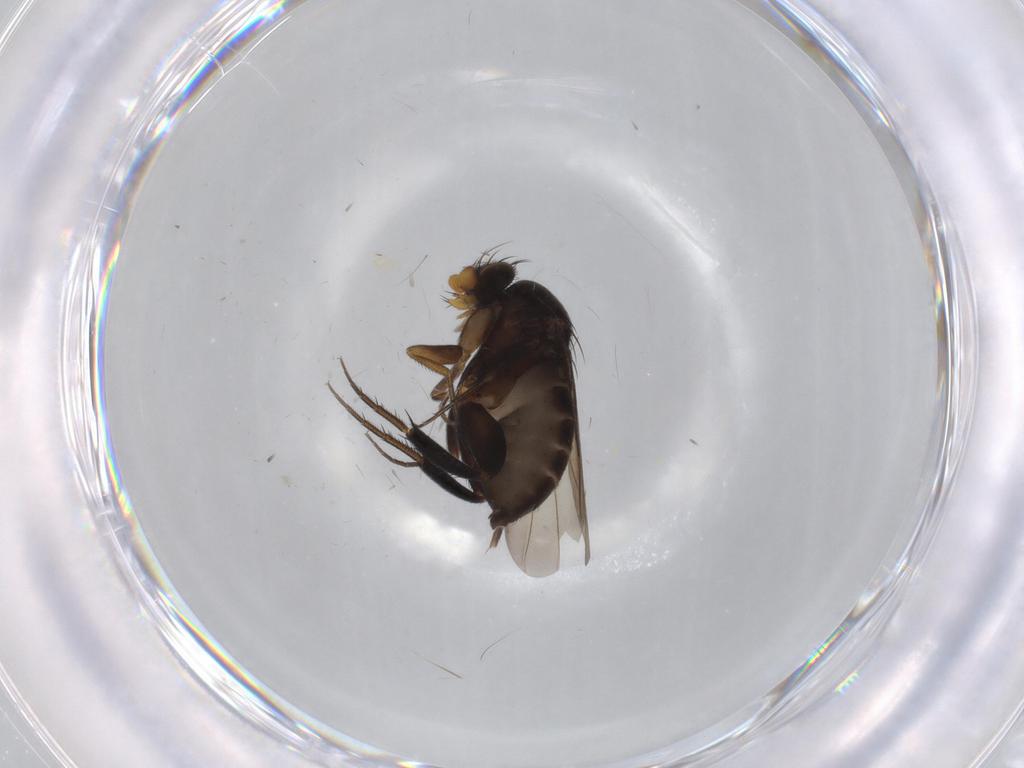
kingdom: Animalia
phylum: Arthropoda
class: Insecta
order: Diptera
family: Phoridae
